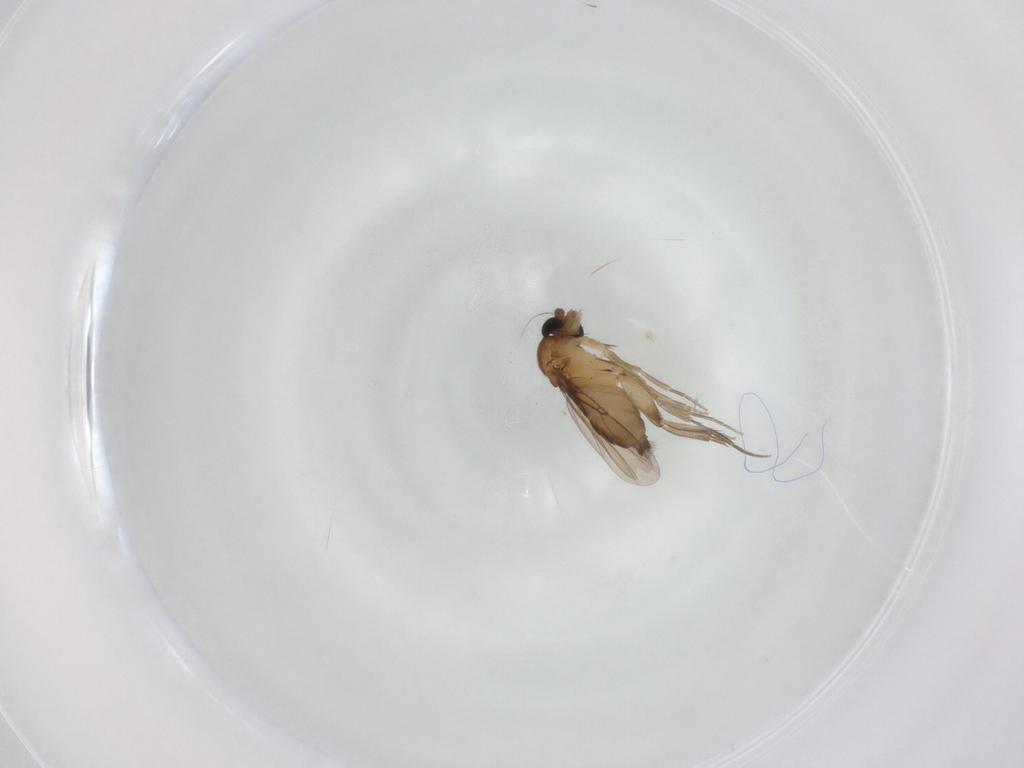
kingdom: Animalia
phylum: Arthropoda
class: Insecta
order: Diptera
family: Phoridae
